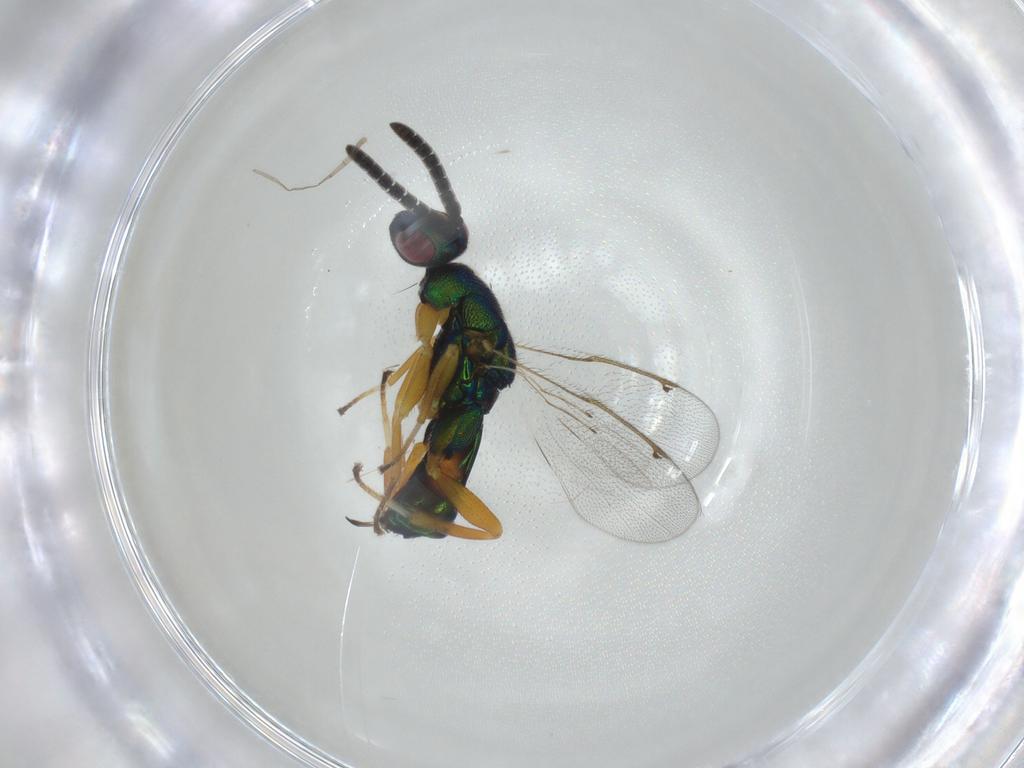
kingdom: Animalia
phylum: Arthropoda
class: Insecta
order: Hymenoptera
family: Torymidae
